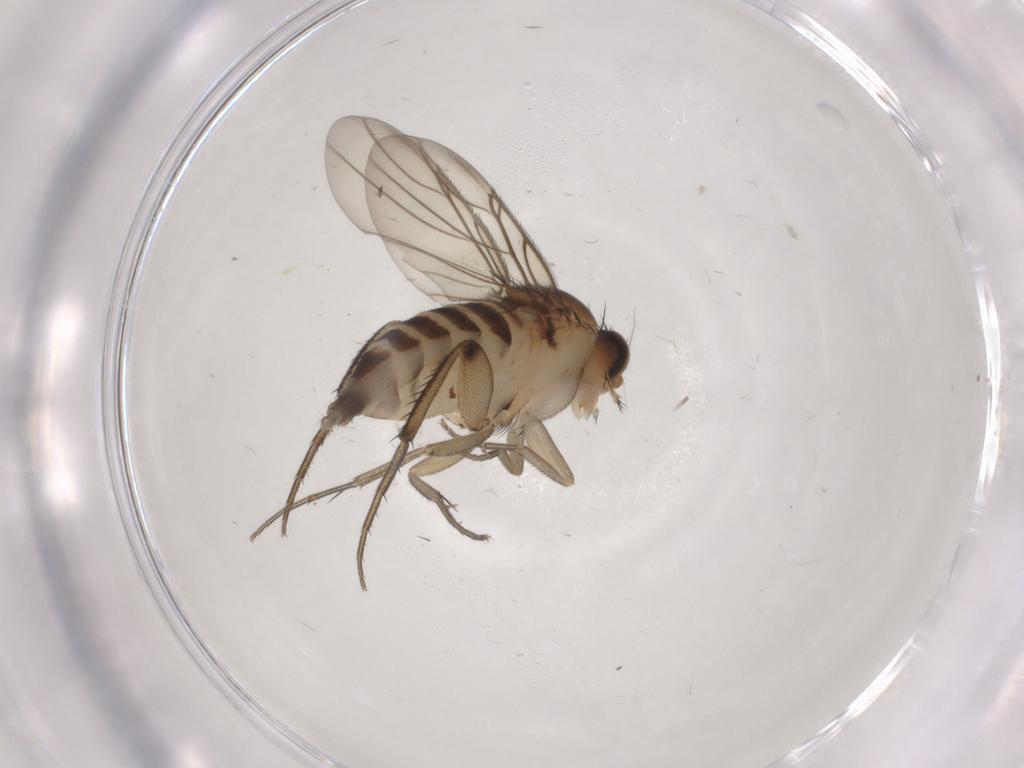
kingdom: Animalia
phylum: Arthropoda
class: Insecta
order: Diptera
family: Phoridae
